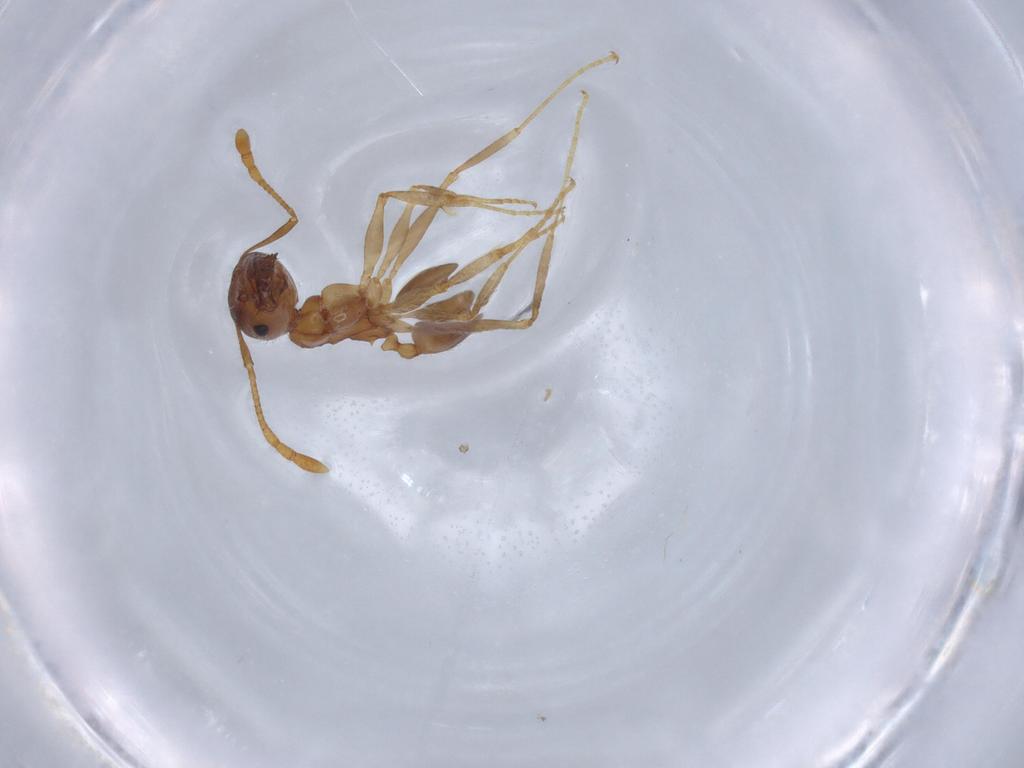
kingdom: Animalia
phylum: Arthropoda
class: Insecta
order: Hymenoptera
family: Formicidae
